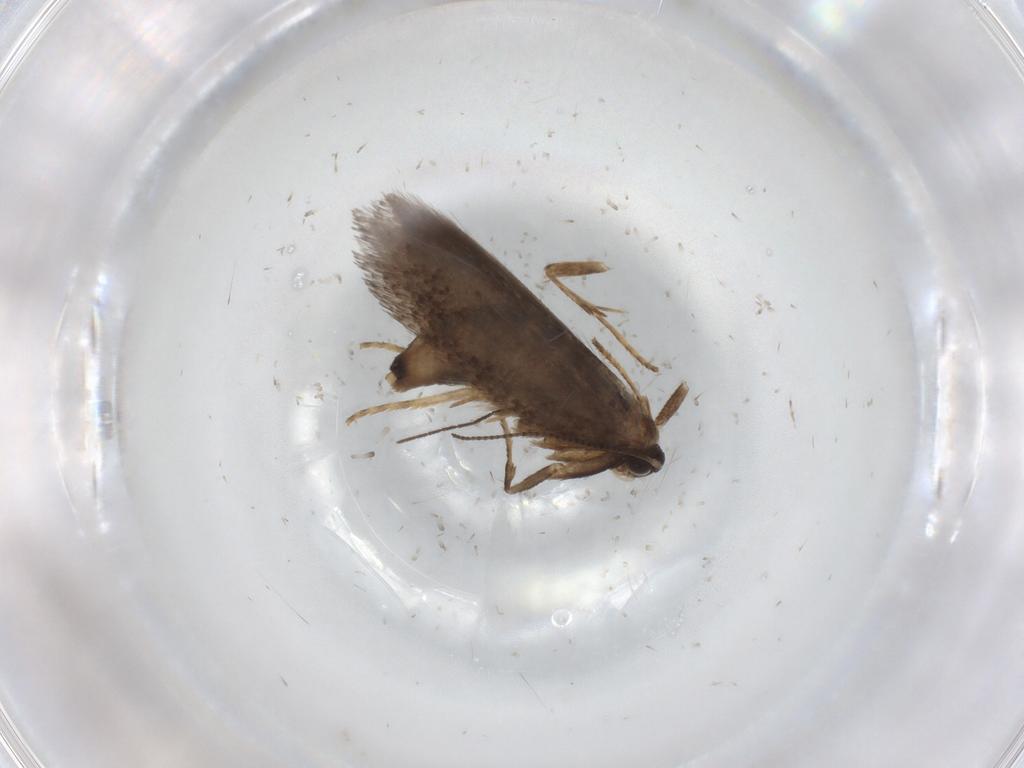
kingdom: Animalia
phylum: Arthropoda
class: Insecta
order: Lepidoptera
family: Nepticulidae
